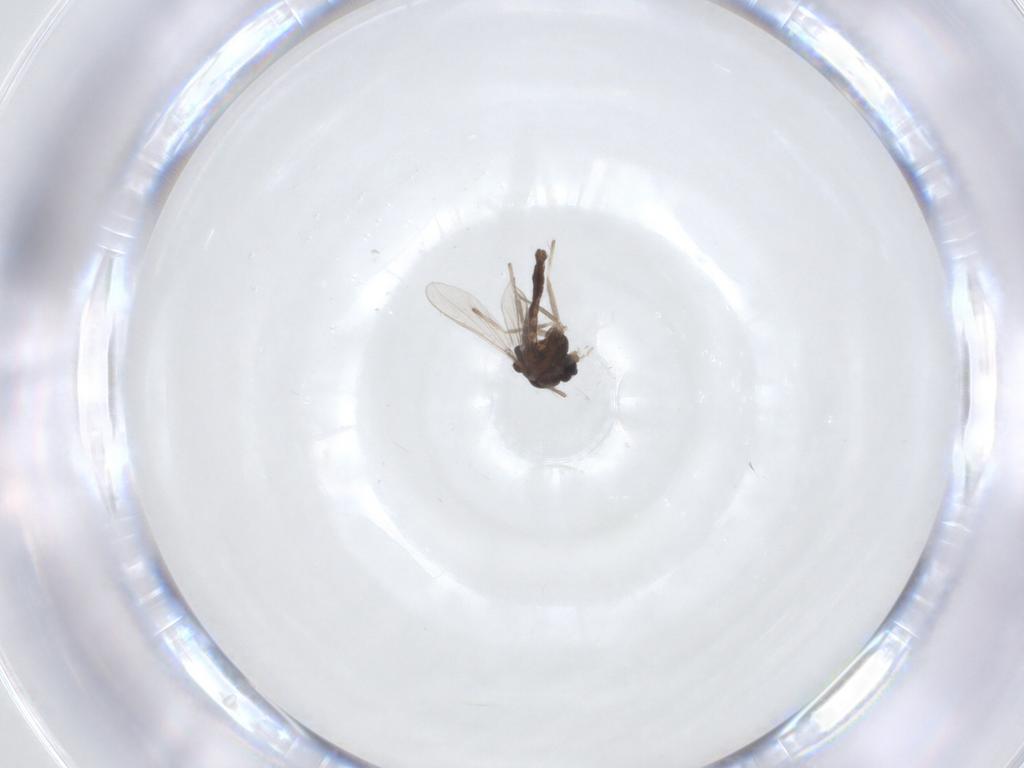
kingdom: Animalia
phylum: Arthropoda
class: Insecta
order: Diptera
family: Chironomidae
